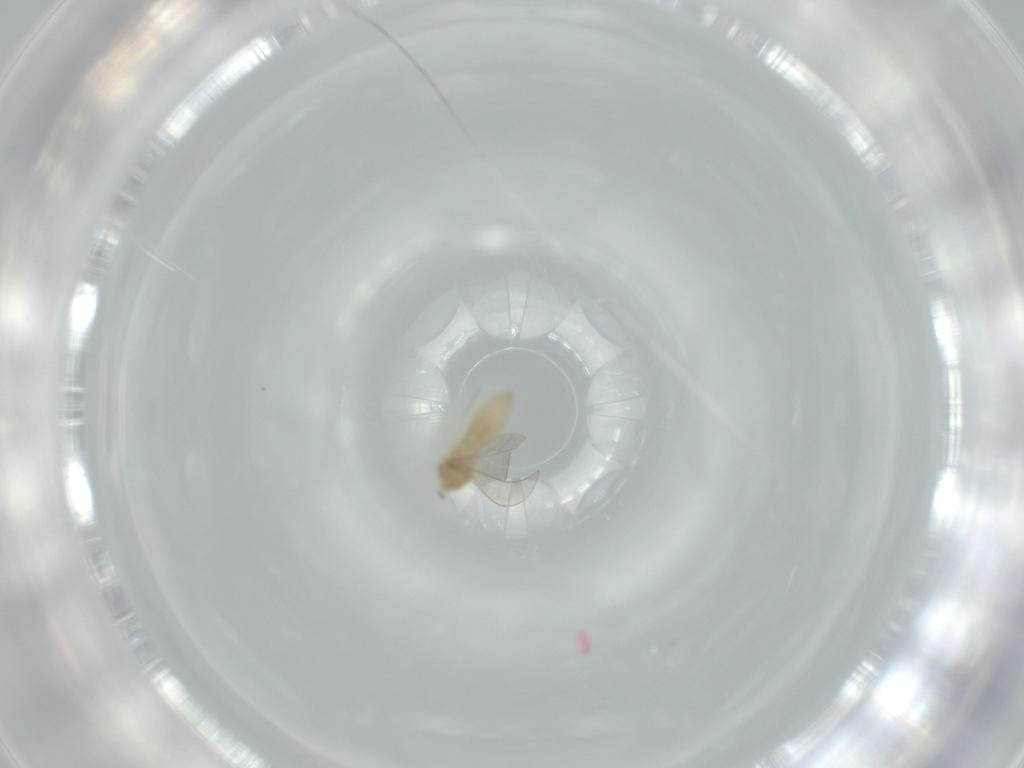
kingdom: Animalia
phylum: Arthropoda
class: Insecta
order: Diptera
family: Cecidomyiidae
